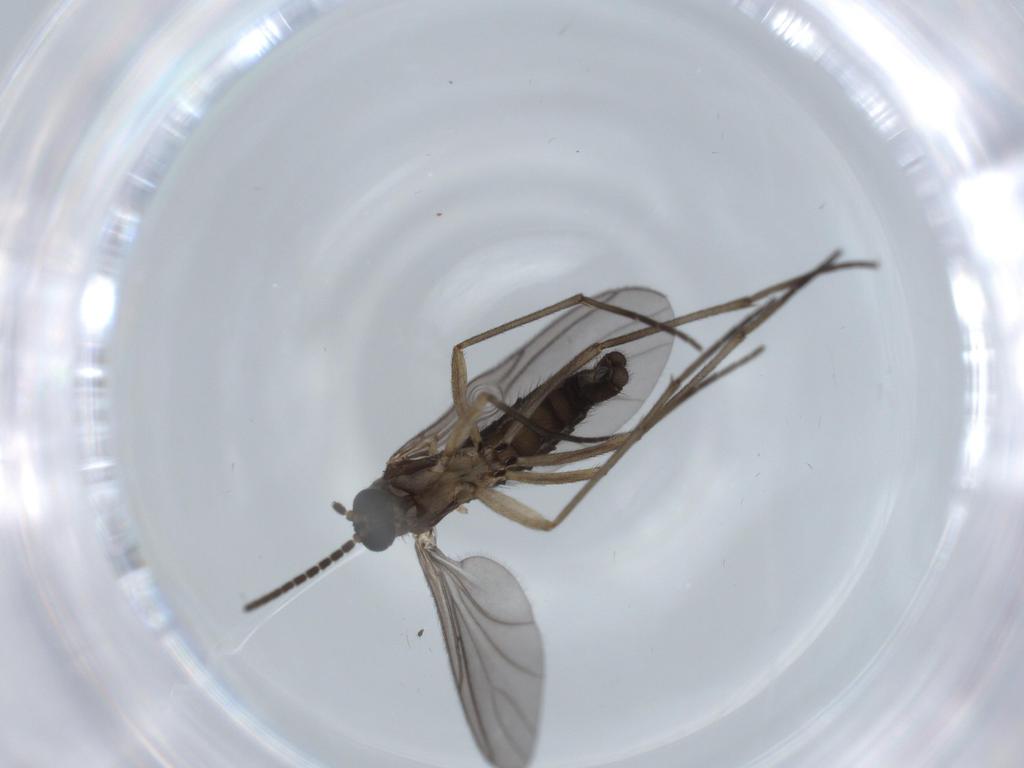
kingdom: Animalia
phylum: Arthropoda
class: Insecta
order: Diptera
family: Sciaridae
